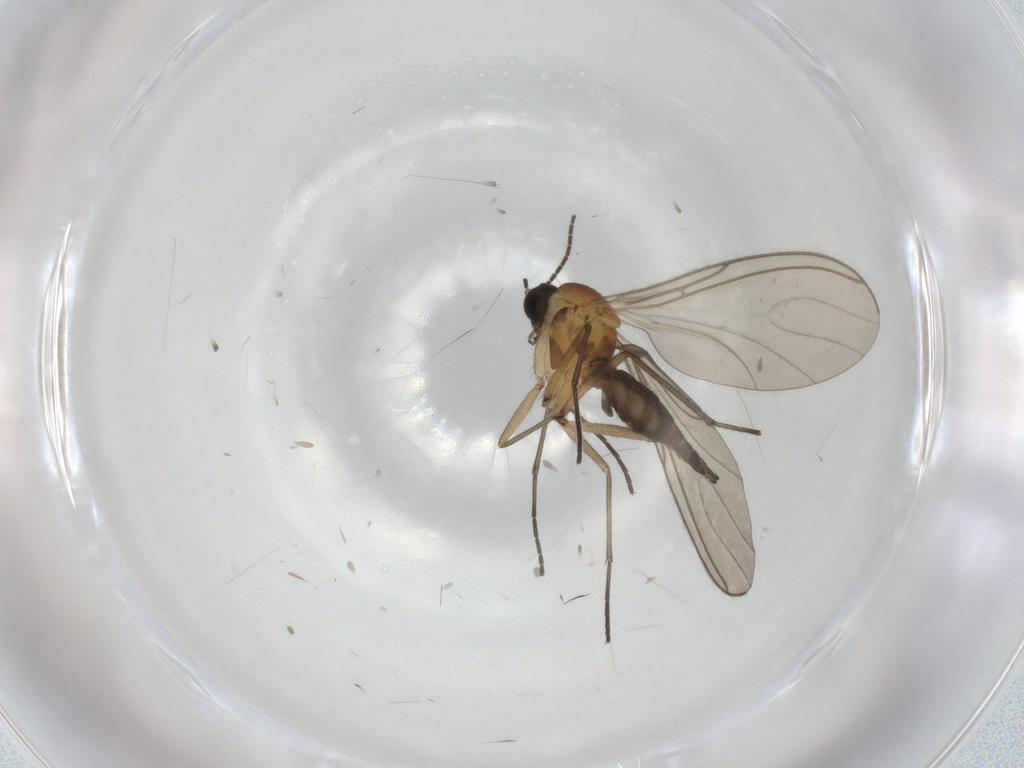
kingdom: Animalia
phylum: Arthropoda
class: Insecta
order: Diptera
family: Sciaridae
